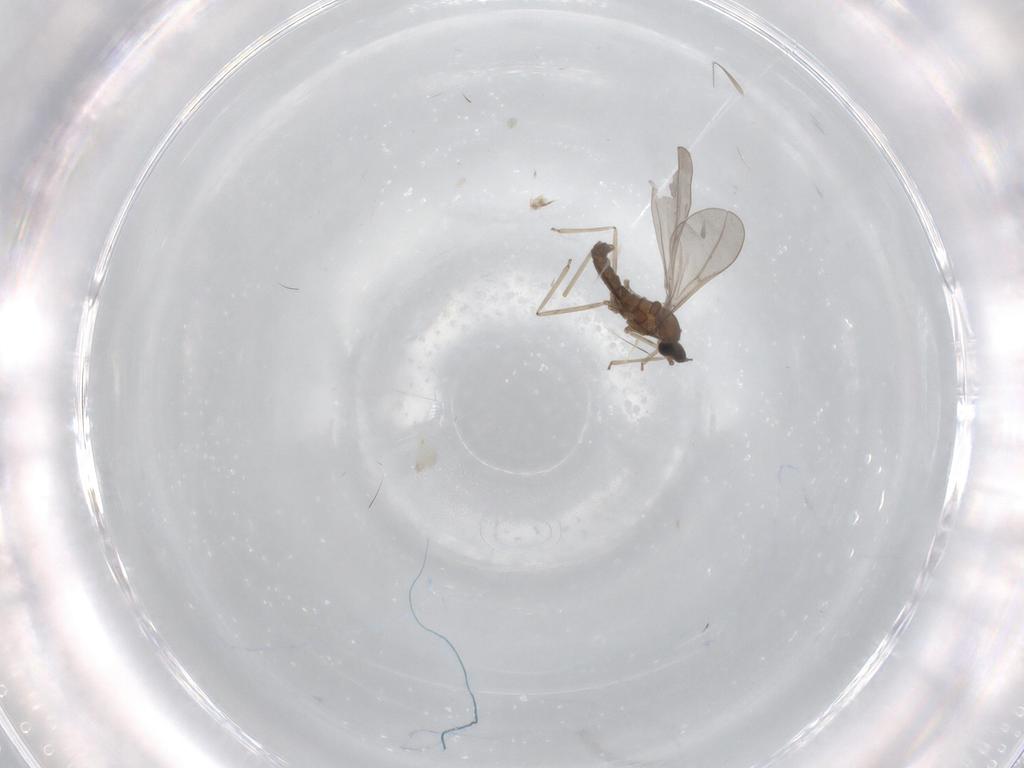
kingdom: Animalia
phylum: Arthropoda
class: Insecta
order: Diptera
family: Cecidomyiidae
